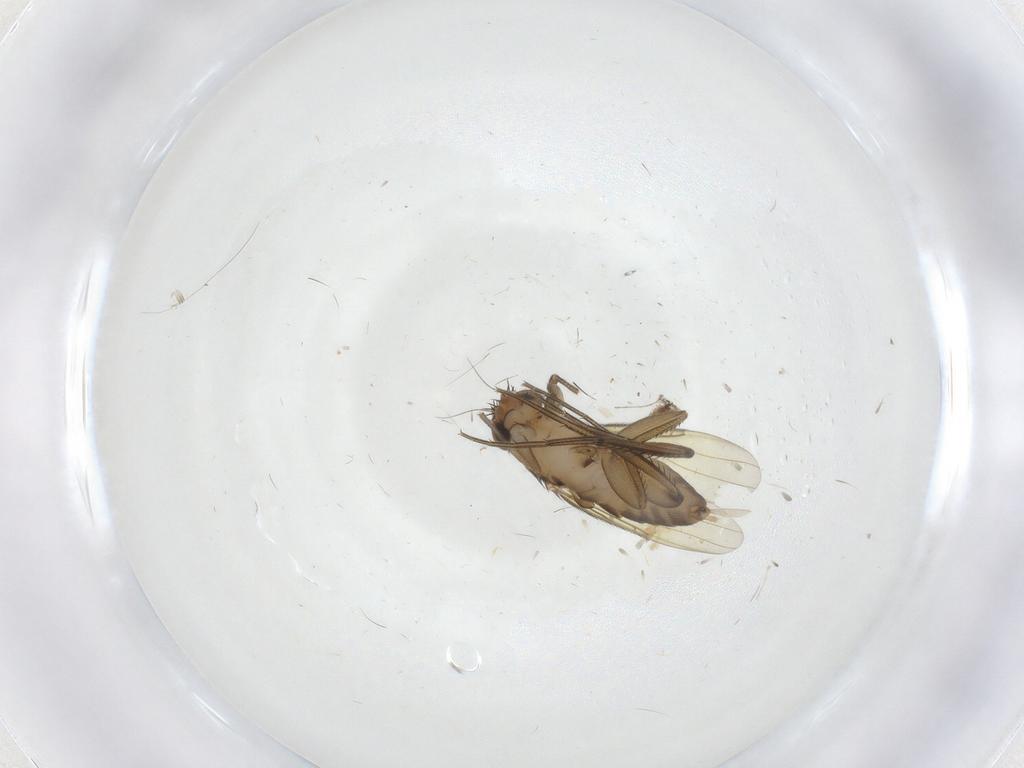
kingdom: Animalia
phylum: Arthropoda
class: Insecta
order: Diptera
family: Phoridae
